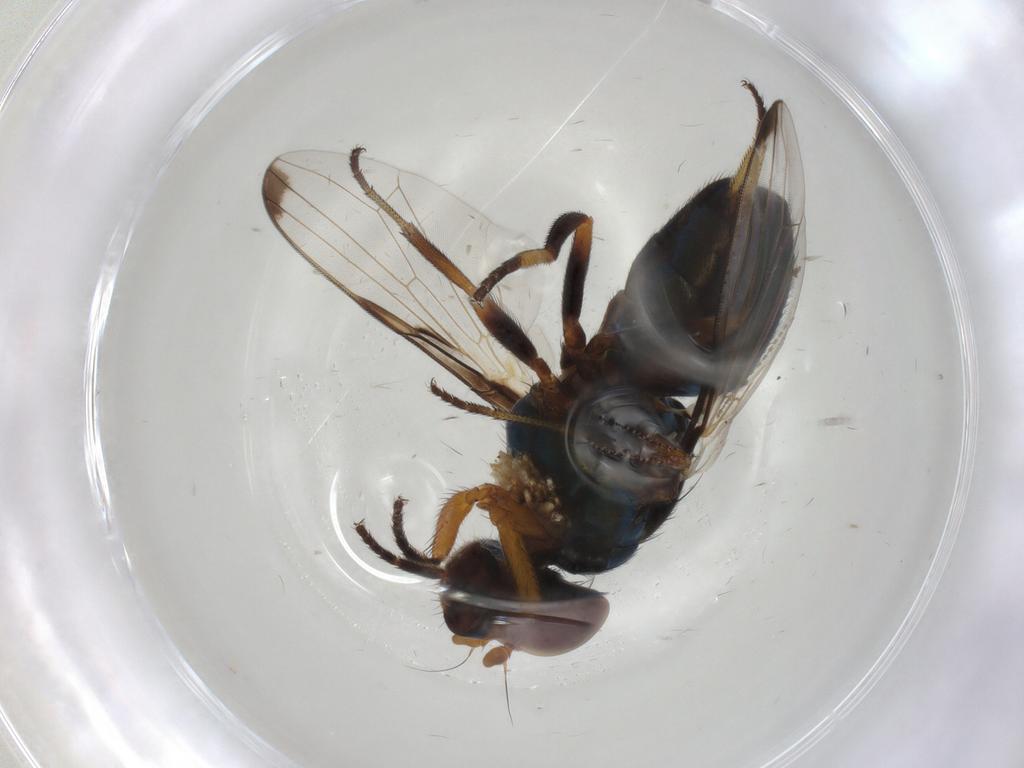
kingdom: Animalia
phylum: Arthropoda
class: Insecta
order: Diptera
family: Ulidiidae
